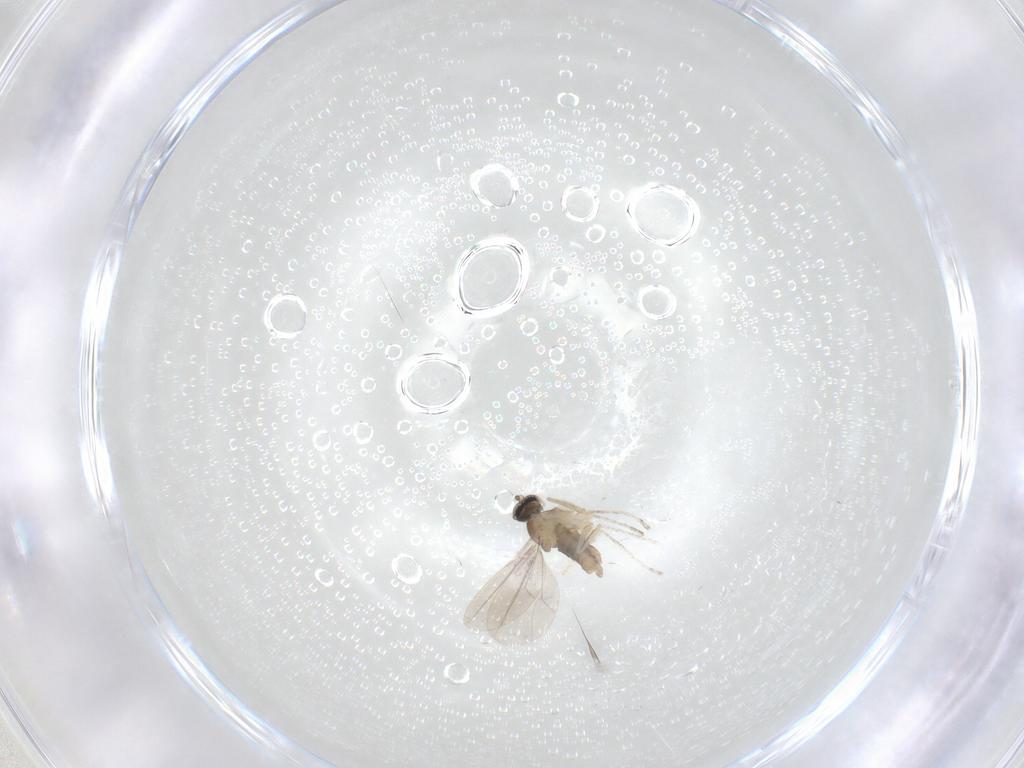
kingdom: Animalia
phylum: Arthropoda
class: Insecta
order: Diptera
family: Cecidomyiidae
